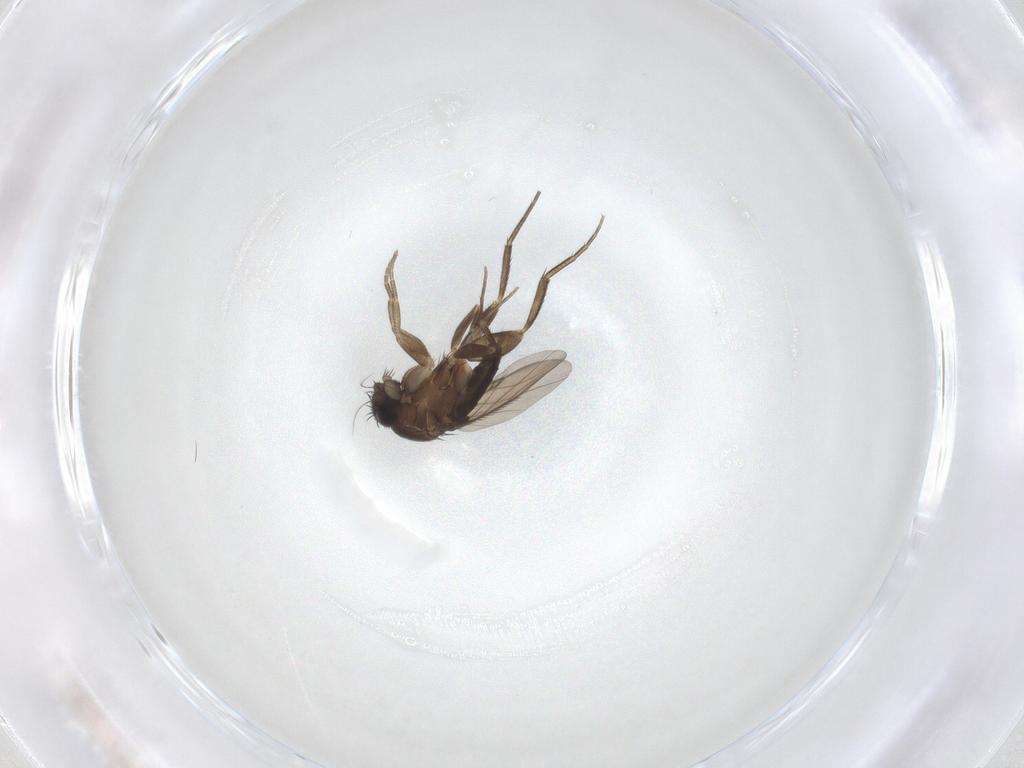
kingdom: Animalia
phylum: Arthropoda
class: Insecta
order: Diptera
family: Phoridae
